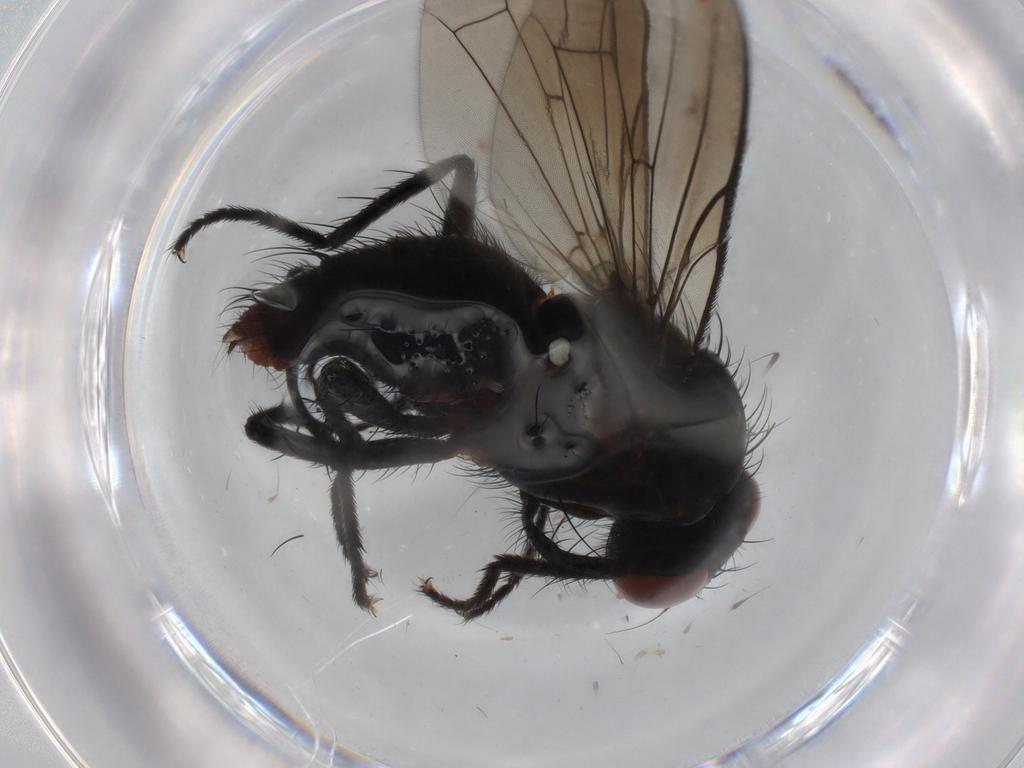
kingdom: Animalia
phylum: Arthropoda
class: Insecta
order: Diptera
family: Anthomyiidae
